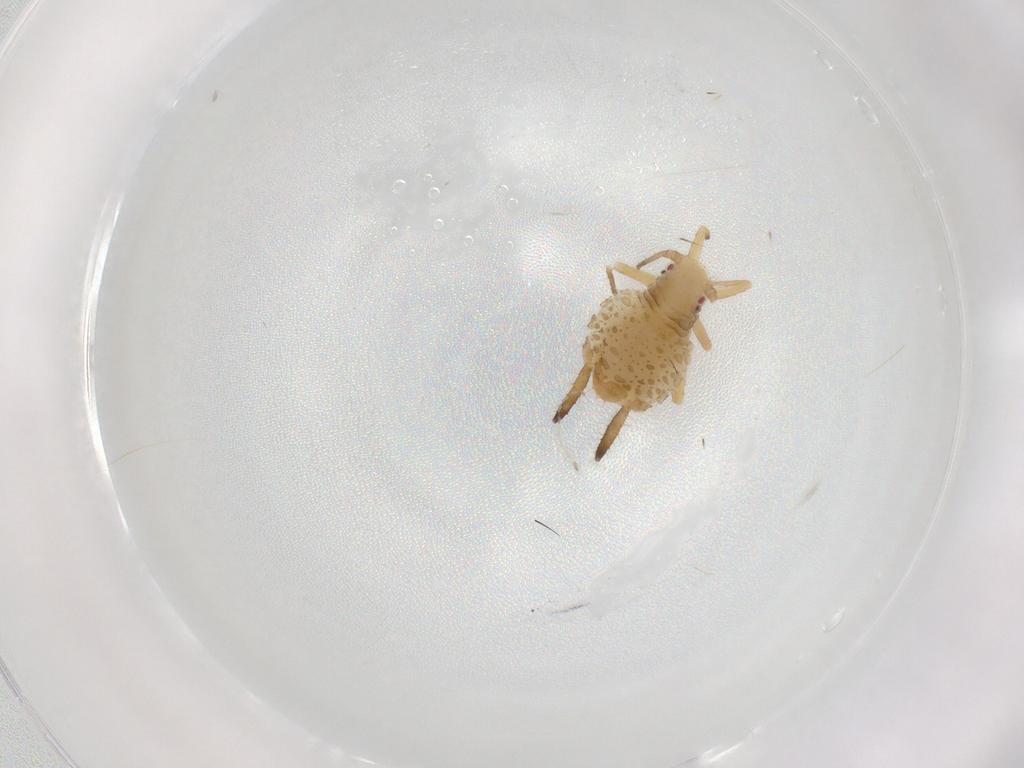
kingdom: Animalia
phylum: Arthropoda
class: Insecta
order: Hemiptera
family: Aphididae
